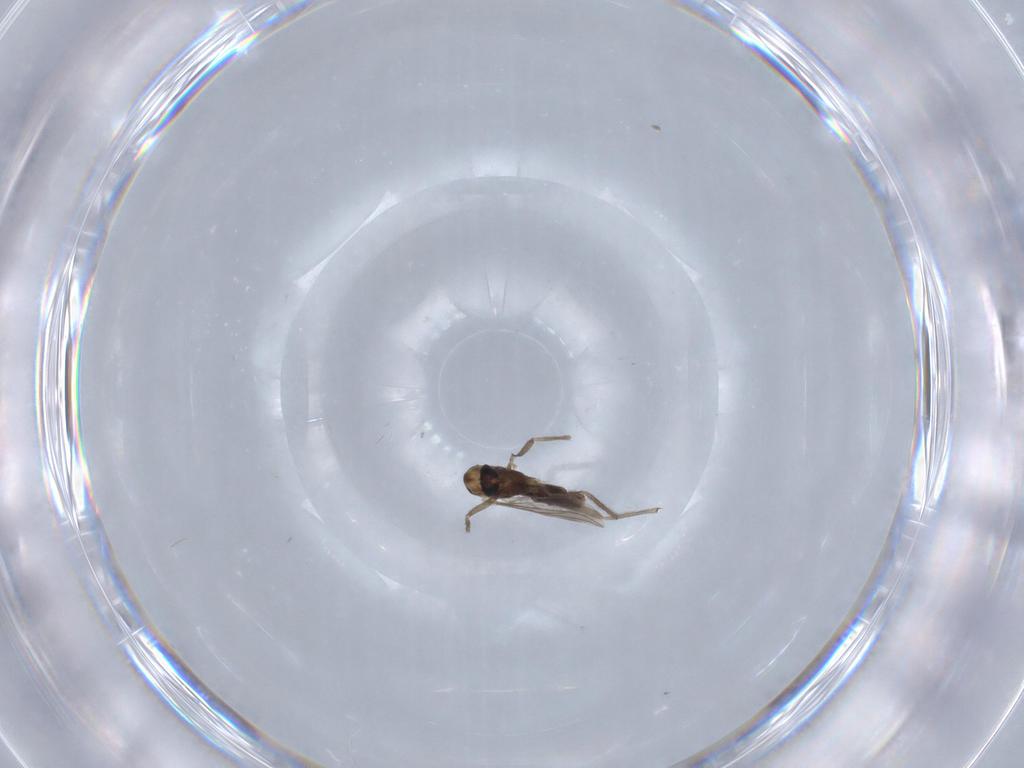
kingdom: Animalia
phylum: Arthropoda
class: Insecta
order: Diptera
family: Chironomidae
